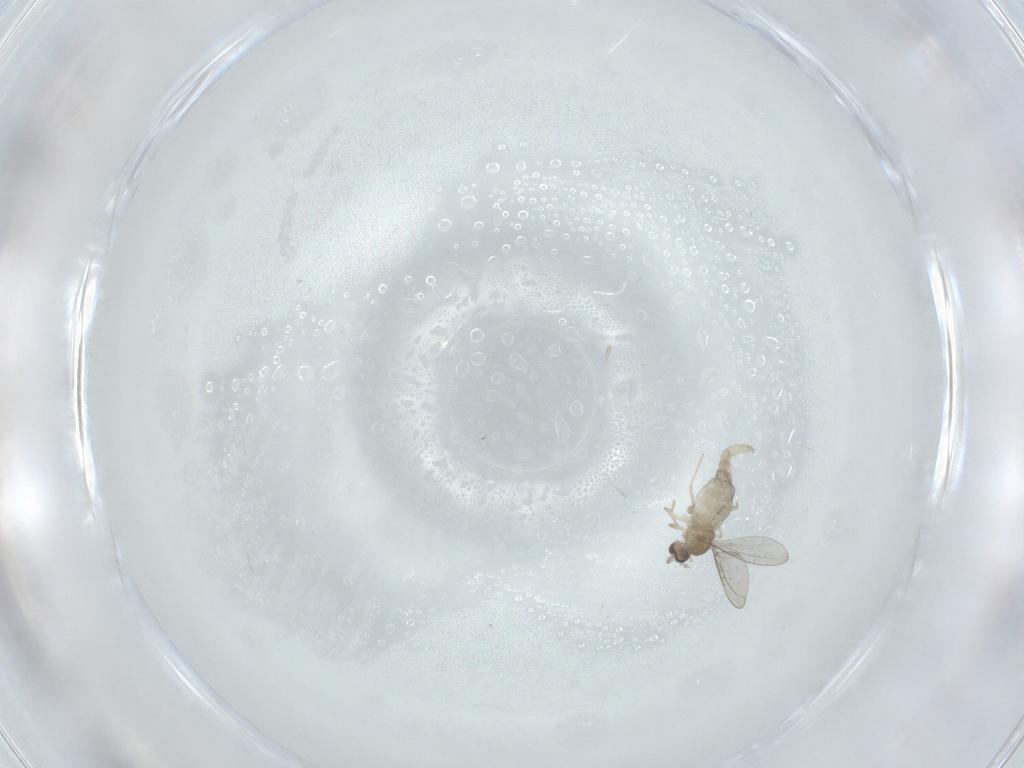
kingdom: Animalia
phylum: Arthropoda
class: Insecta
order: Diptera
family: Cecidomyiidae
